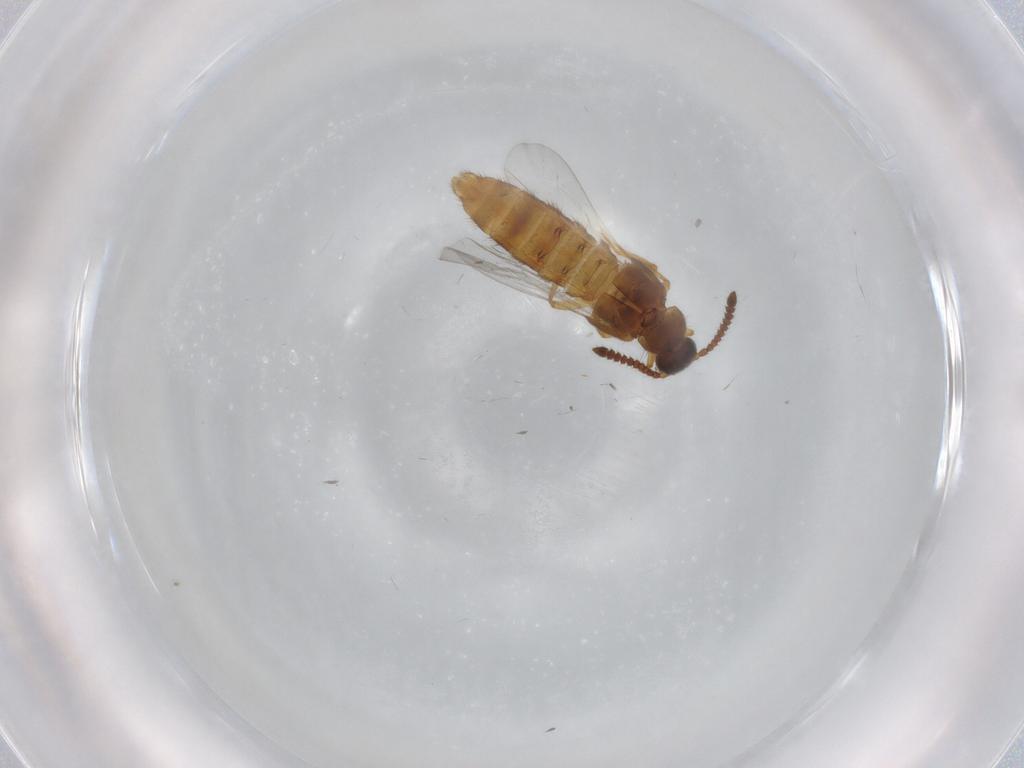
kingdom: Animalia
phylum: Arthropoda
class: Insecta
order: Coleoptera
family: Staphylinidae
